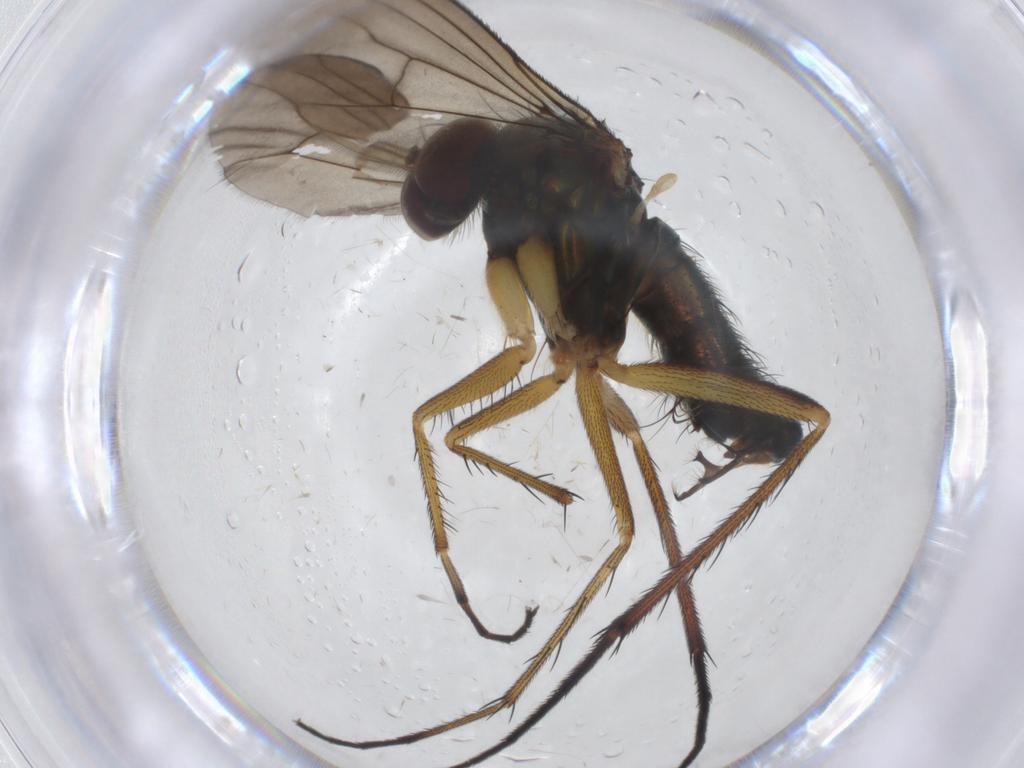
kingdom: Animalia
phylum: Arthropoda
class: Insecta
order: Diptera
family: Dolichopodidae
